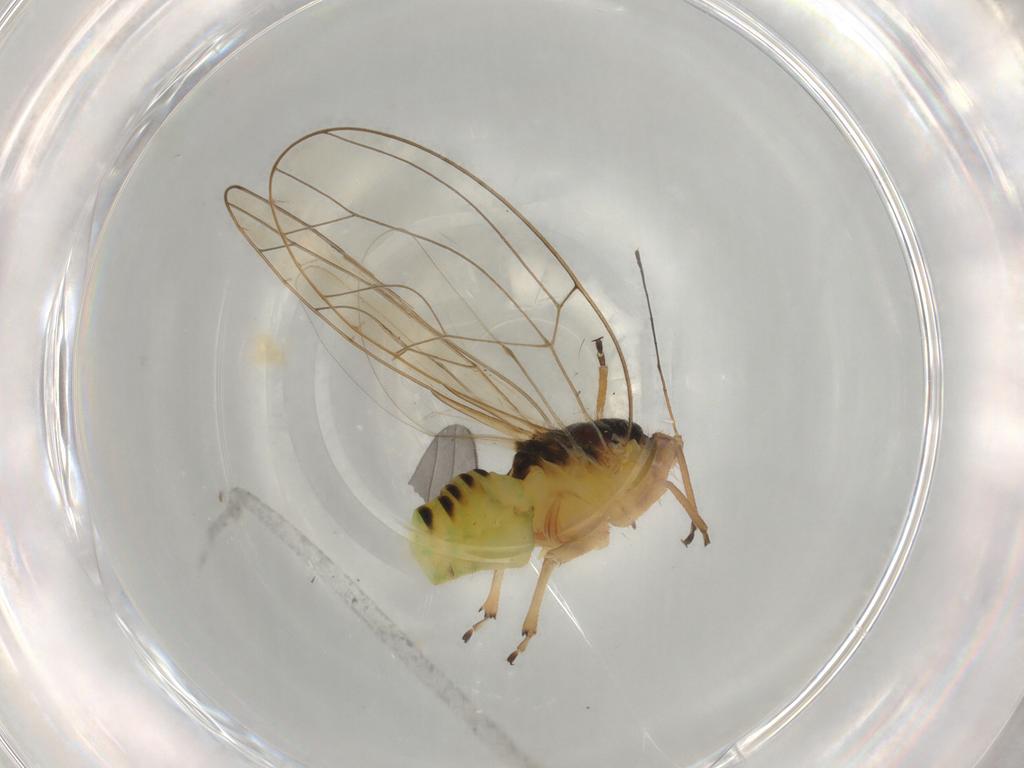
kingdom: Animalia
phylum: Arthropoda
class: Insecta
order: Hemiptera
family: Triozidae
